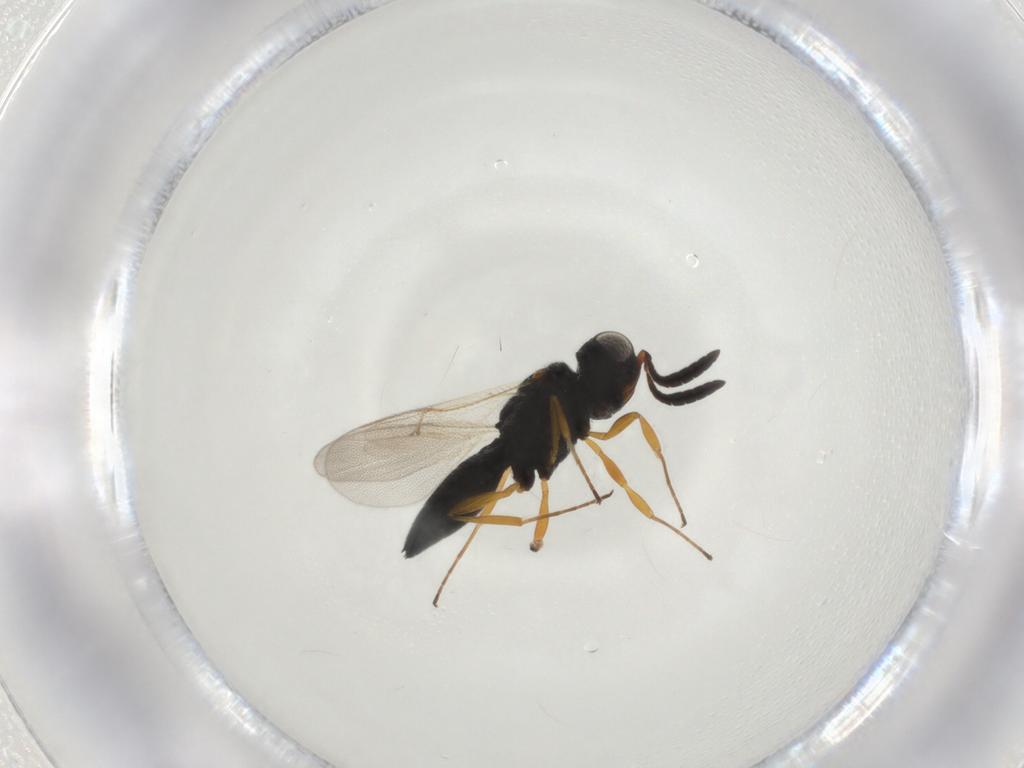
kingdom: Animalia
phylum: Arthropoda
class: Insecta
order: Hymenoptera
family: Scelionidae
